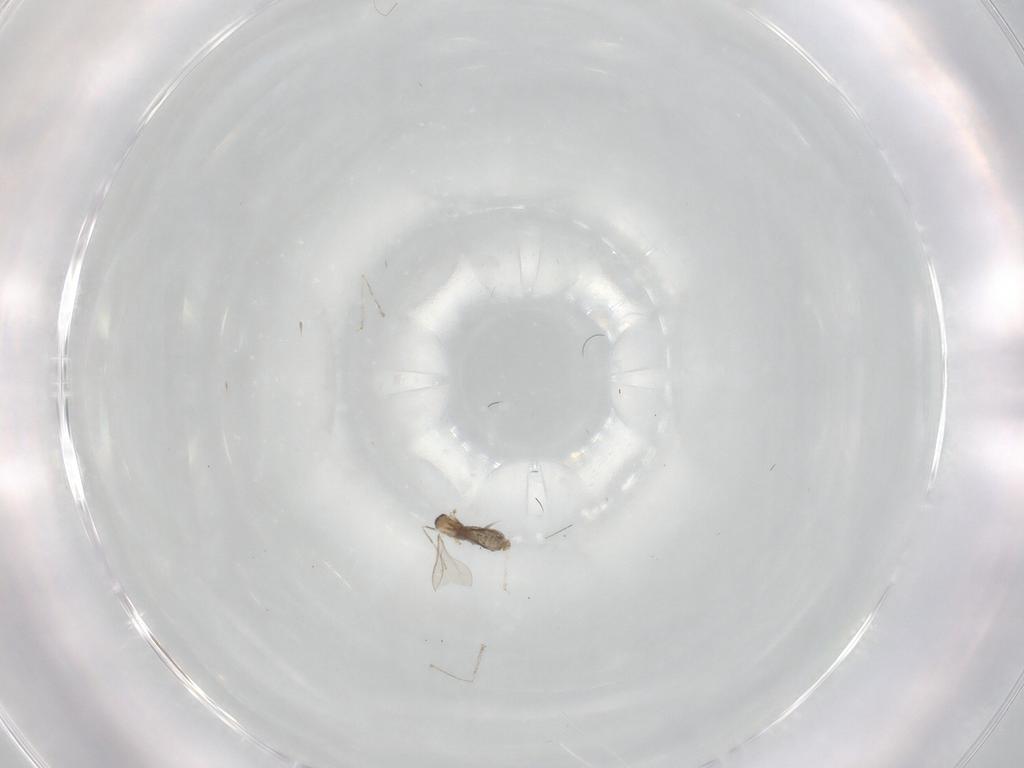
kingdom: Animalia
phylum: Arthropoda
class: Insecta
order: Diptera
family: Cecidomyiidae
